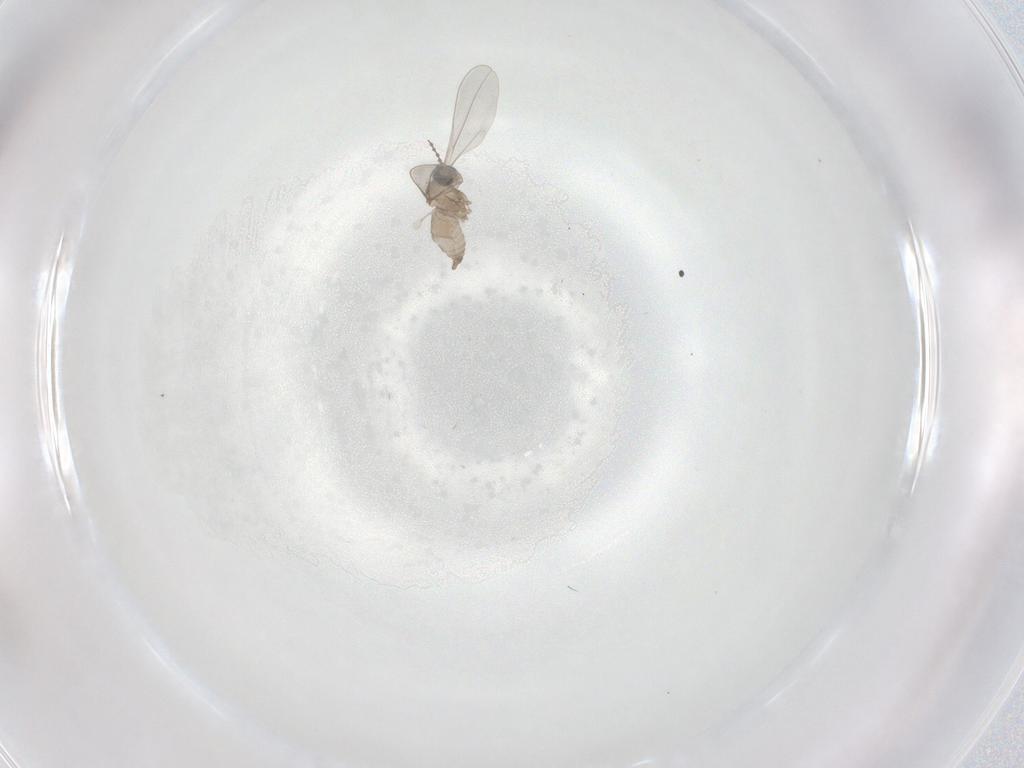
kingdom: Animalia
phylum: Arthropoda
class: Insecta
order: Diptera
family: Cecidomyiidae
